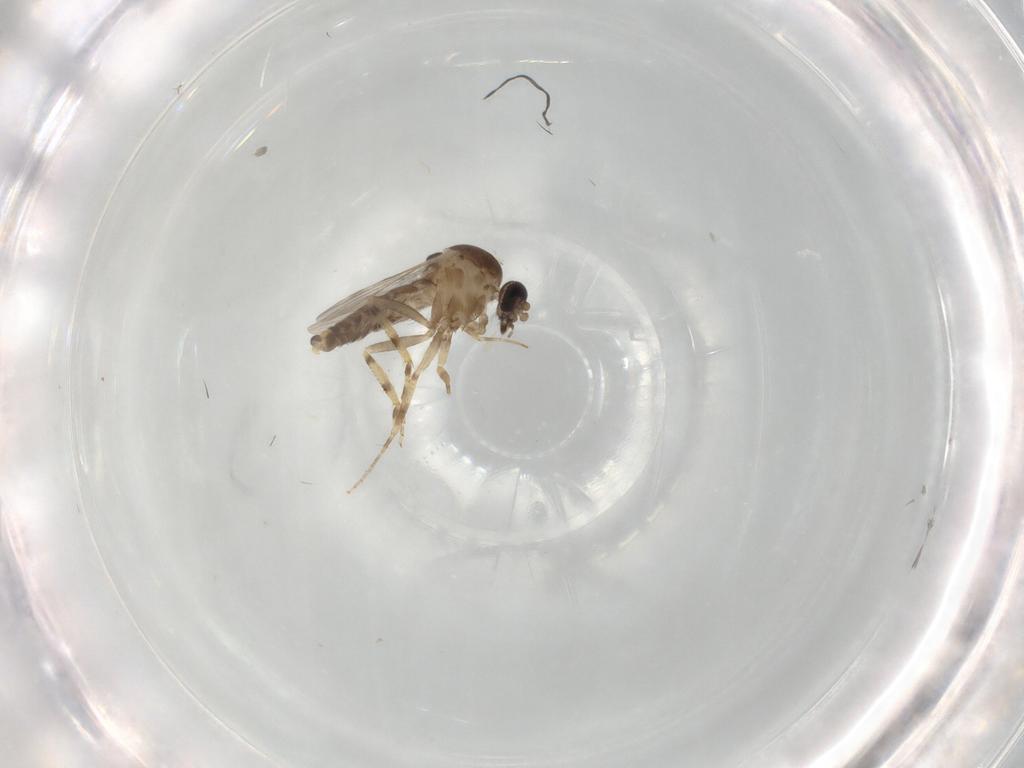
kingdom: Animalia
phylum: Arthropoda
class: Insecta
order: Diptera
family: Ceratopogonidae
